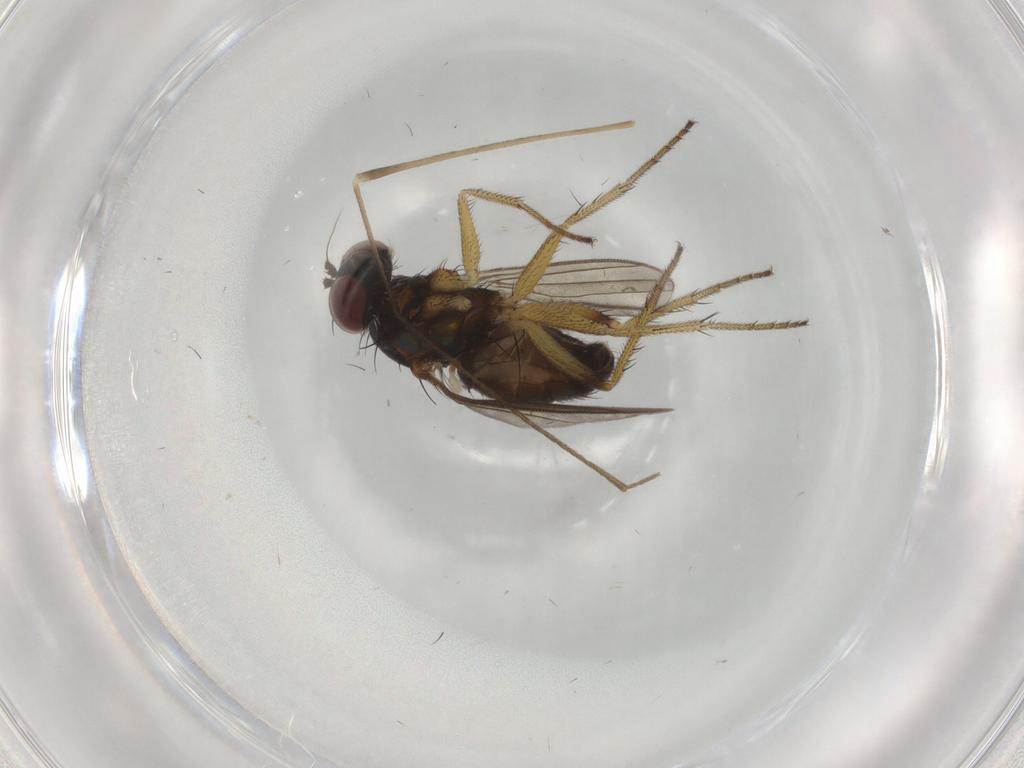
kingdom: Animalia
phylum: Arthropoda
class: Insecta
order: Diptera
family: Dolichopodidae
